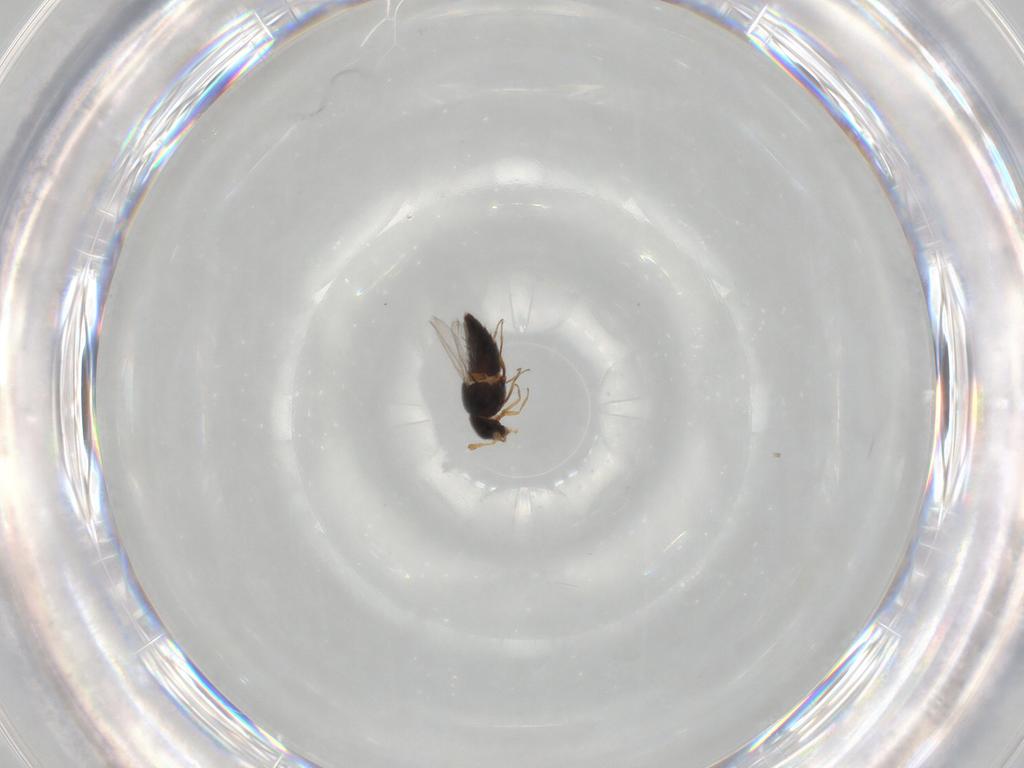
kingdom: Animalia
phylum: Arthropoda
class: Insecta
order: Coleoptera
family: Staphylinidae
